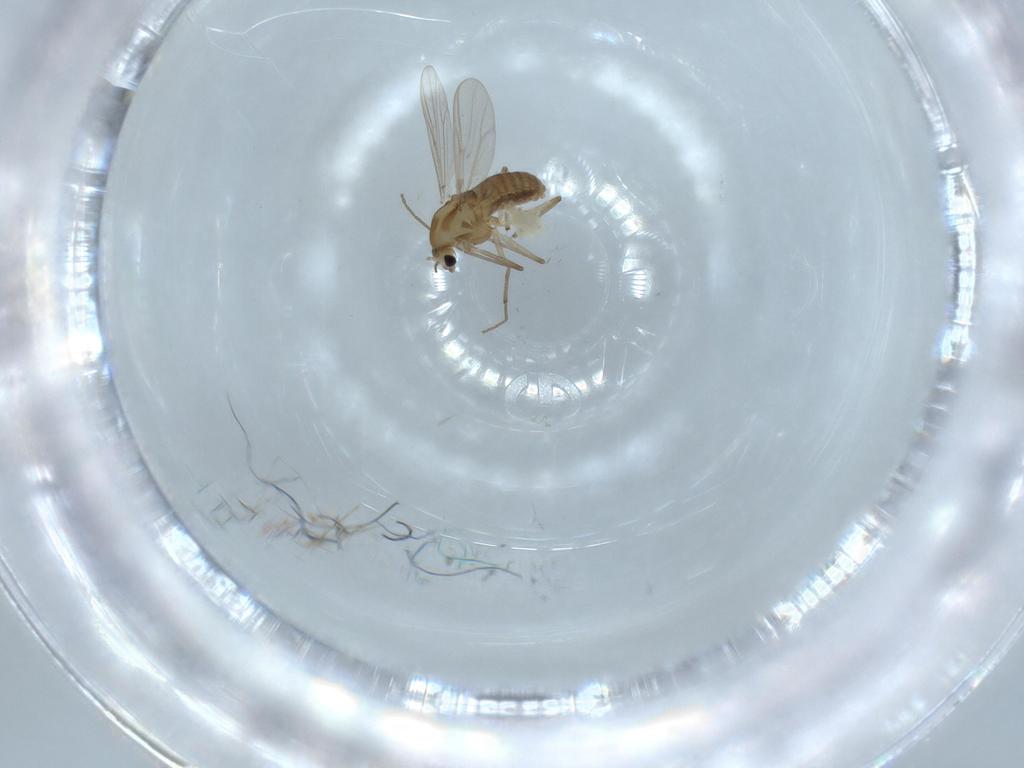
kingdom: Animalia
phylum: Arthropoda
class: Insecta
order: Diptera
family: Chironomidae
